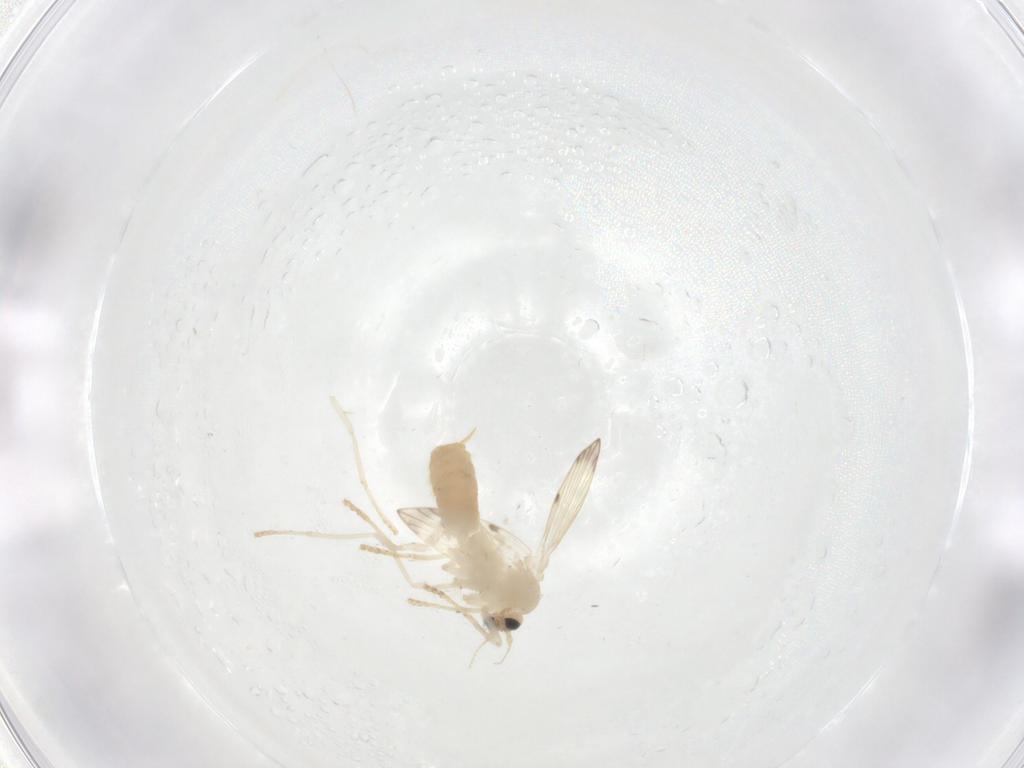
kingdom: Animalia
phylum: Arthropoda
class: Insecta
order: Diptera
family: Psychodidae
